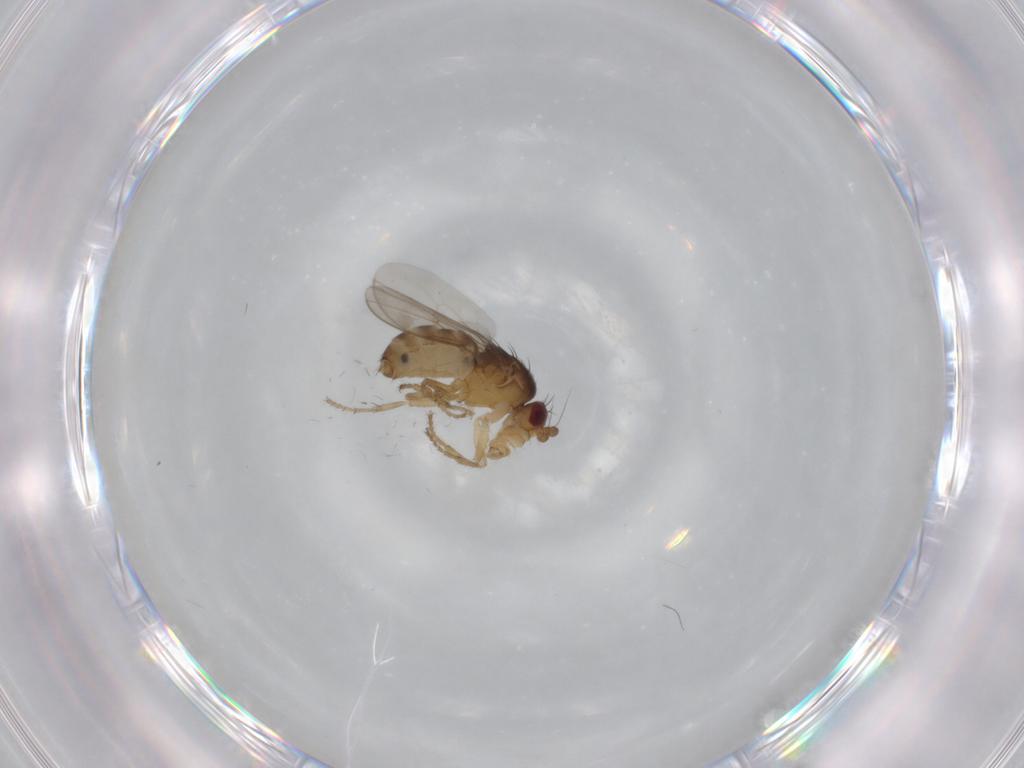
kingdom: Animalia
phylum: Arthropoda
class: Insecta
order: Diptera
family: Sphaeroceridae
